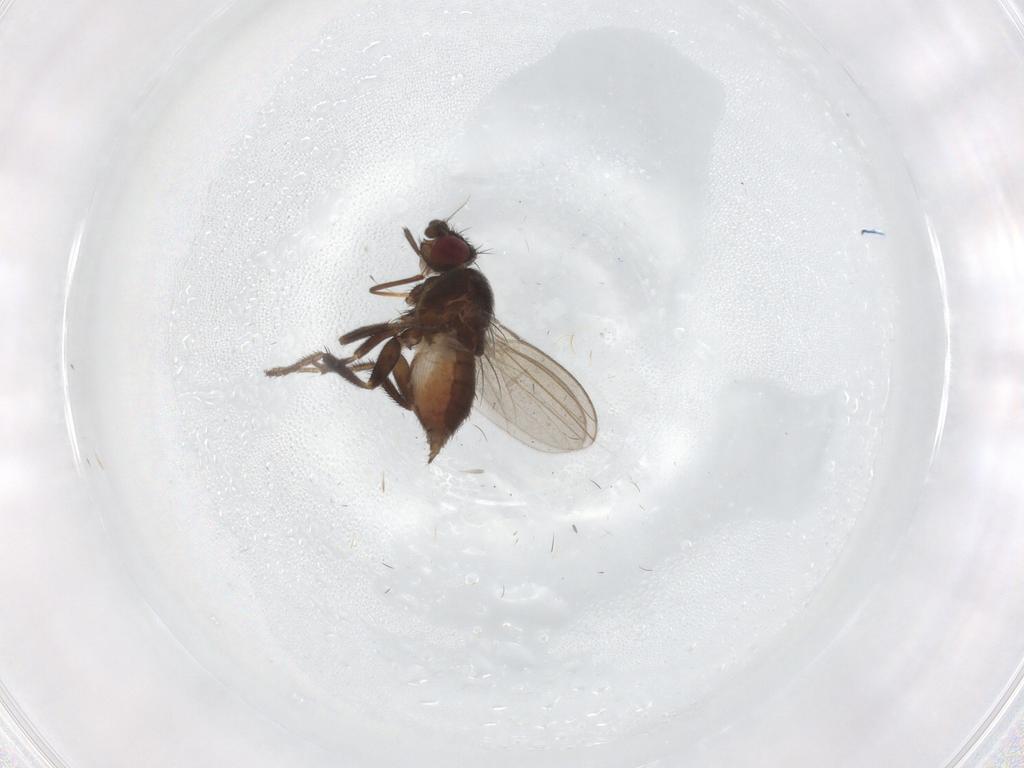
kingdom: Animalia
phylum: Arthropoda
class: Insecta
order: Diptera
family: Milichiidae
